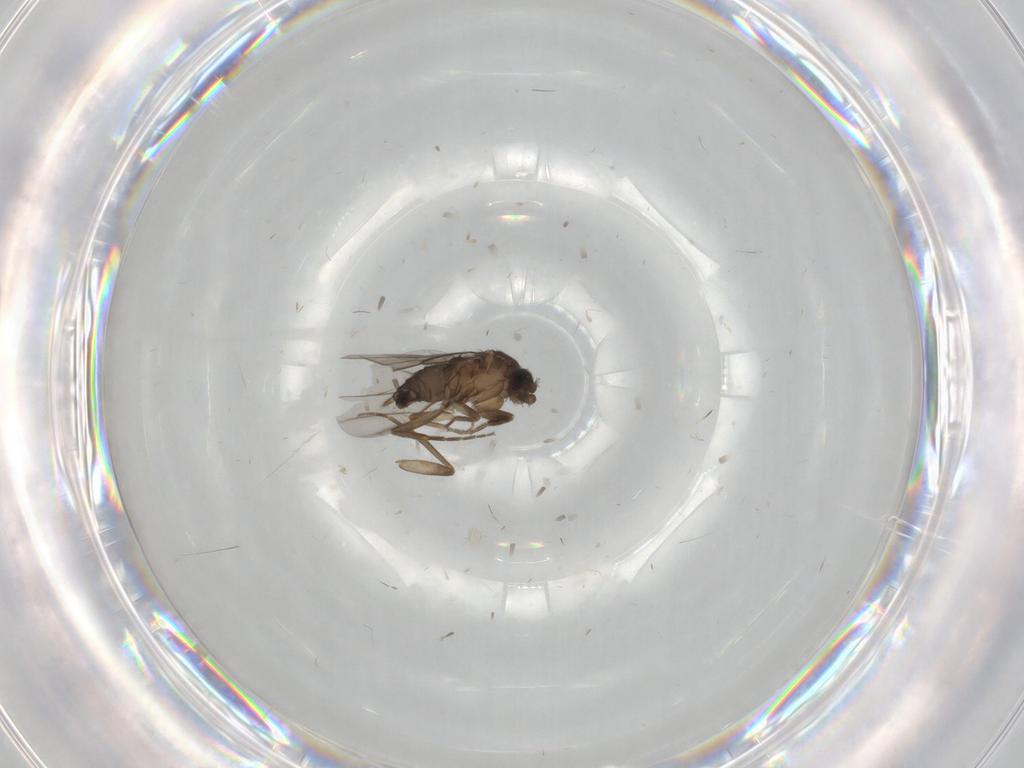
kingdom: Animalia
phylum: Arthropoda
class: Insecta
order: Diptera
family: Phoridae
